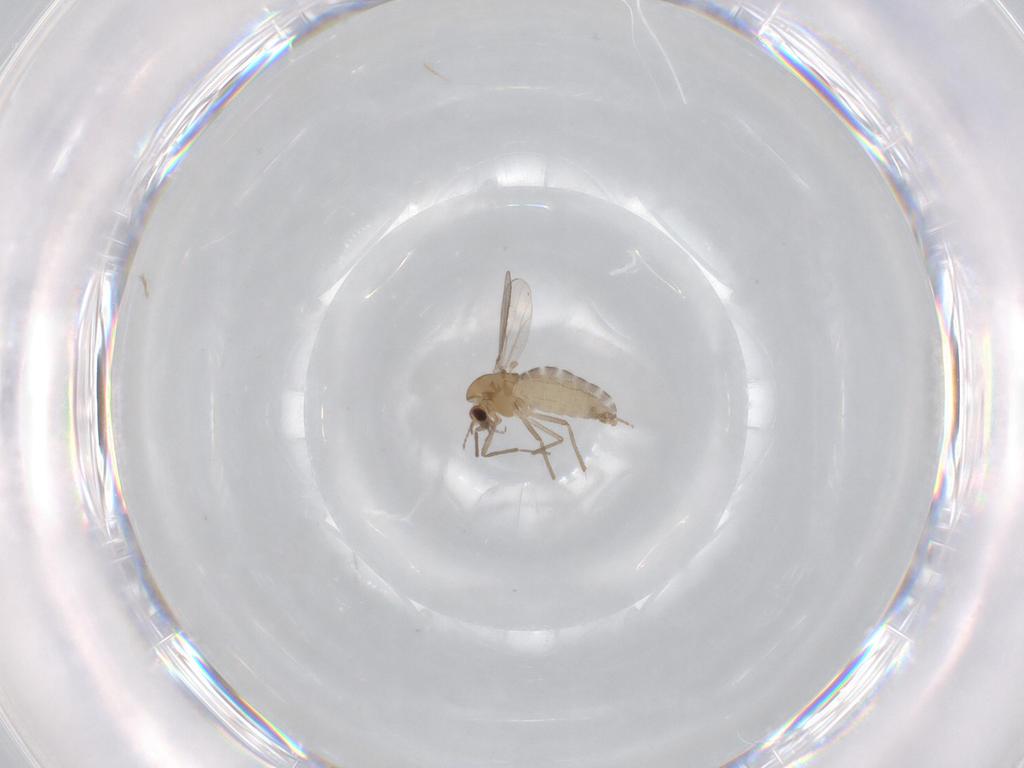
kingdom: Animalia
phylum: Arthropoda
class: Insecta
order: Diptera
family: Chironomidae
